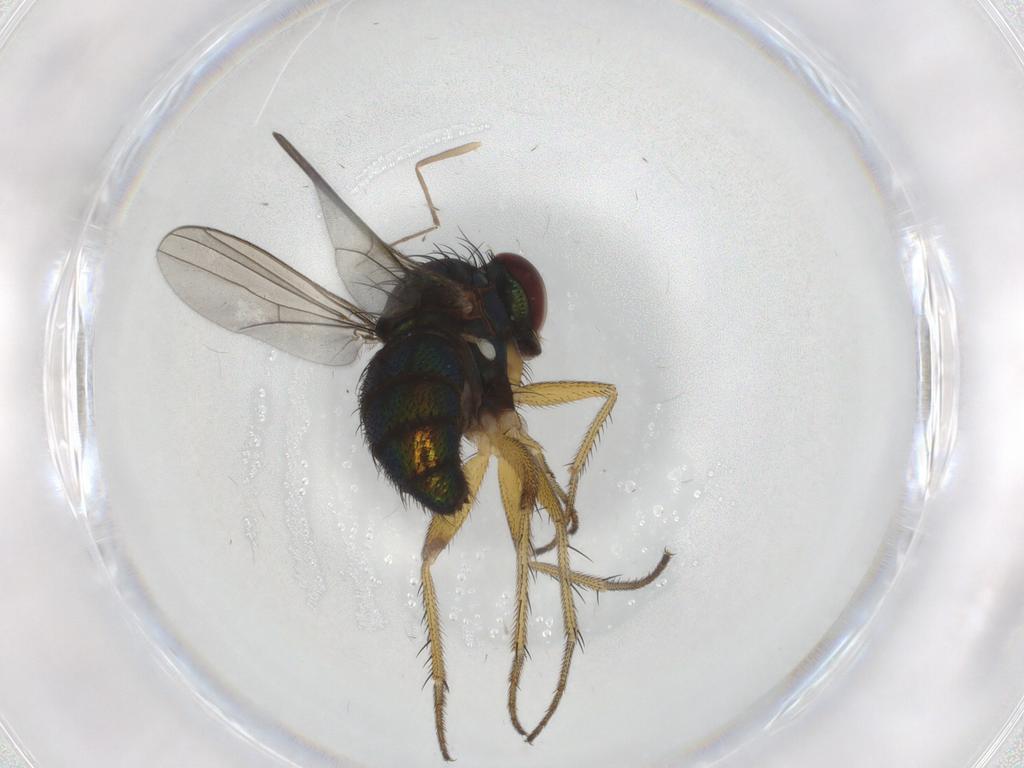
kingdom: Animalia
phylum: Arthropoda
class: Insecta
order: Diptera
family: Dolichopodidae
